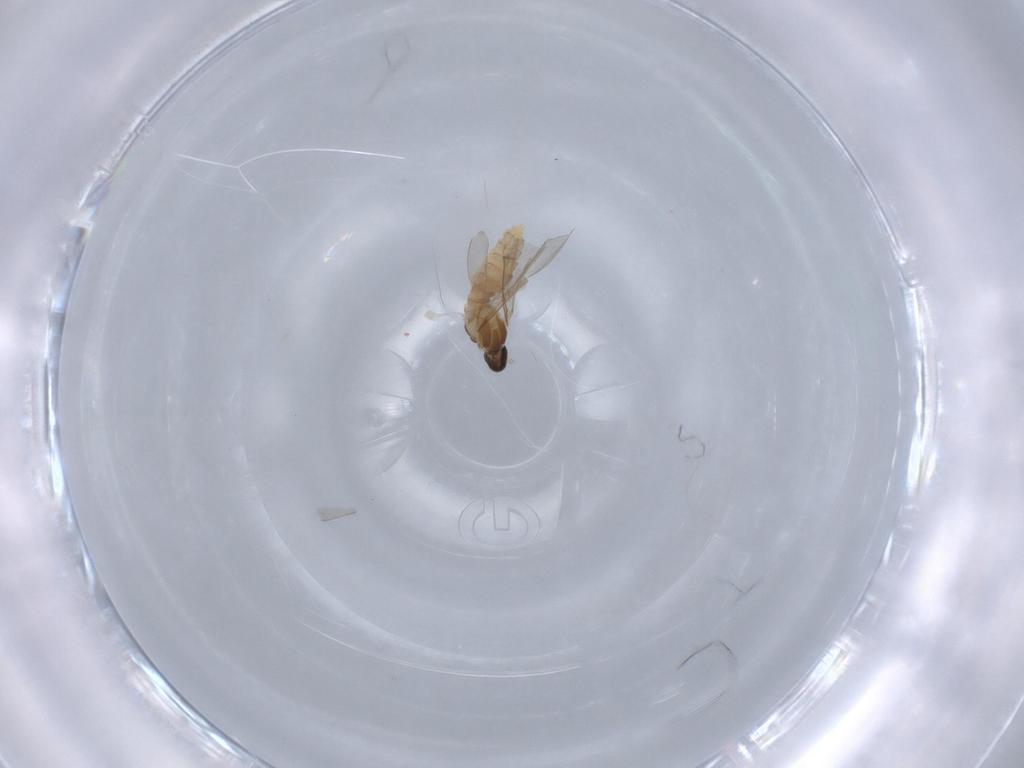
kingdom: Animalia
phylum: Arthropoda
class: Insecta
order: Diptera
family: Cecidomyiidae
